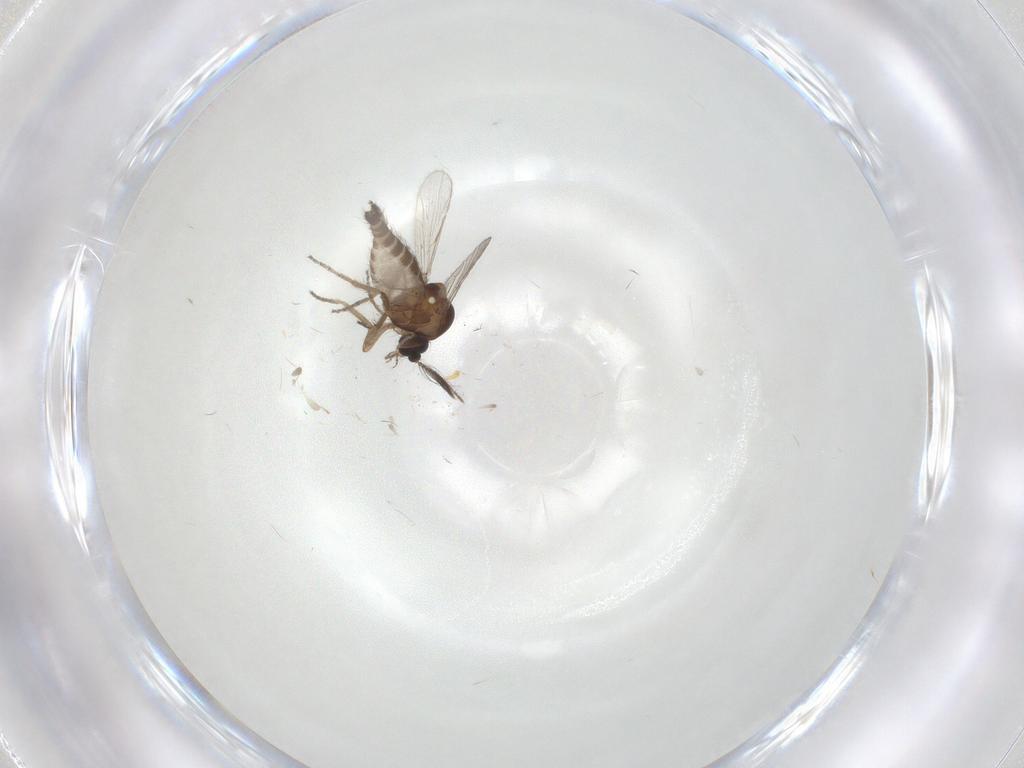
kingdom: Animalia
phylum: Arthropoda
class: Insecta
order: Diptera
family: Ceratopogonidae
